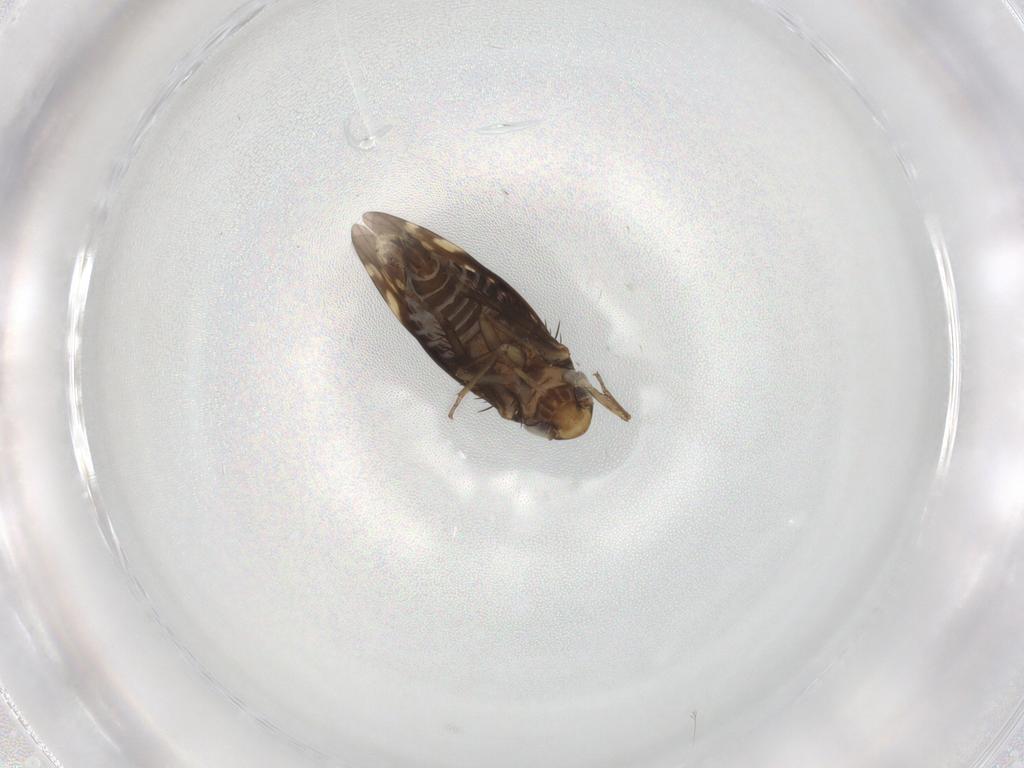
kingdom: Animalia
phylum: Arthropoda
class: Insecta
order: Hemiptera
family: Cicadellidae
